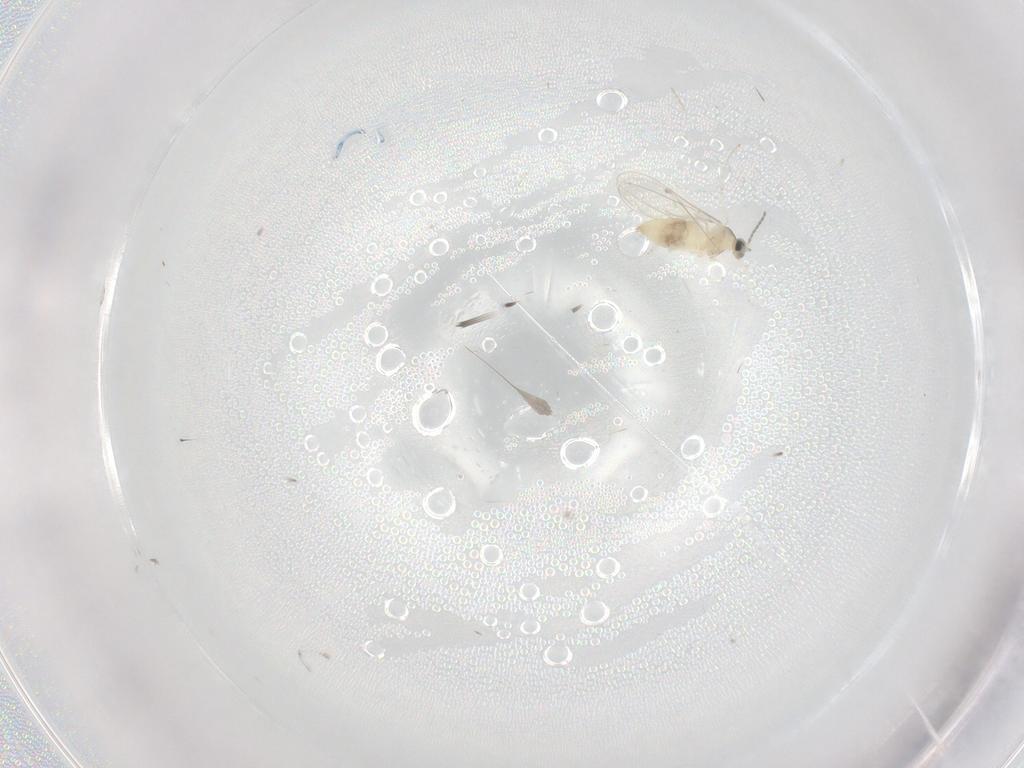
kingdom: Animalia
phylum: Arthropoda
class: Insecta
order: Diptera
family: Cecidomyiidae
